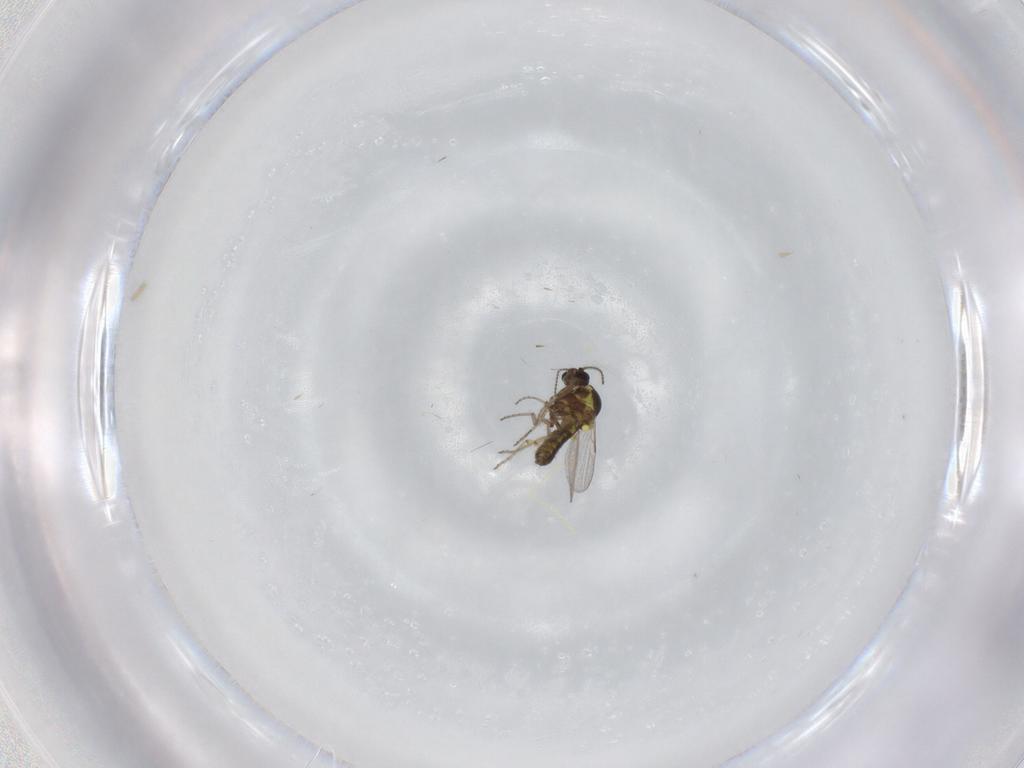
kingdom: Animalia
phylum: Arthropoda
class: Insecta
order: Diptera
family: Ceratopogonidae
